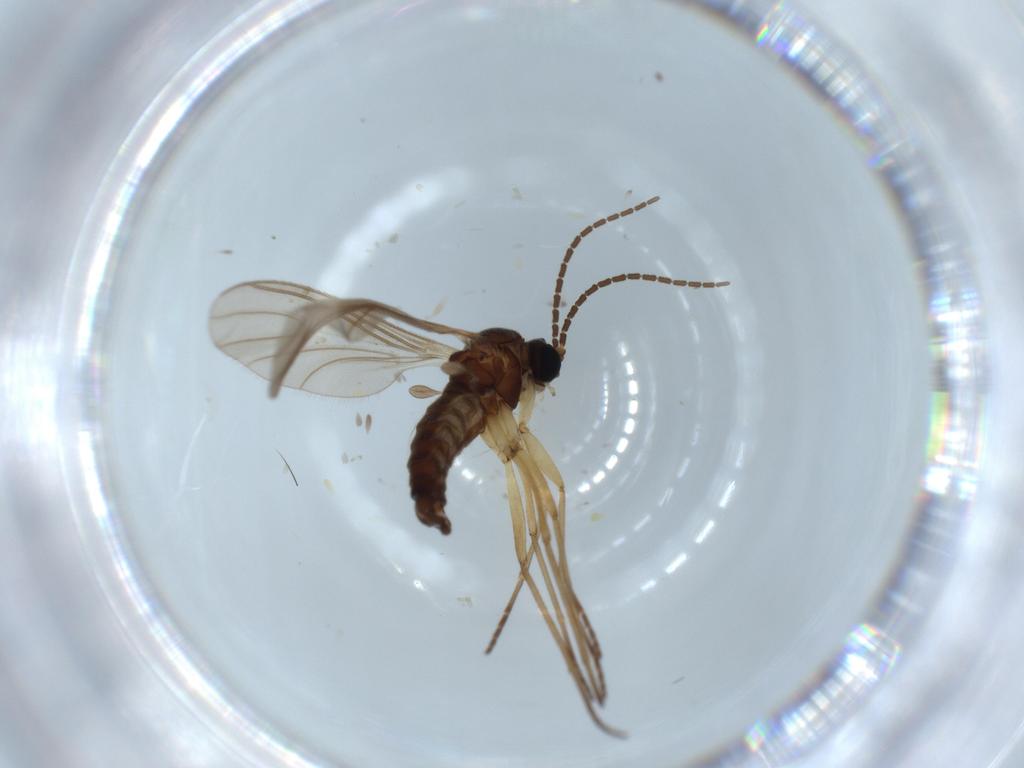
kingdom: Animalia
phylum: Arthropoda
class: Insecta
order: Diptera
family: Sciaridae
